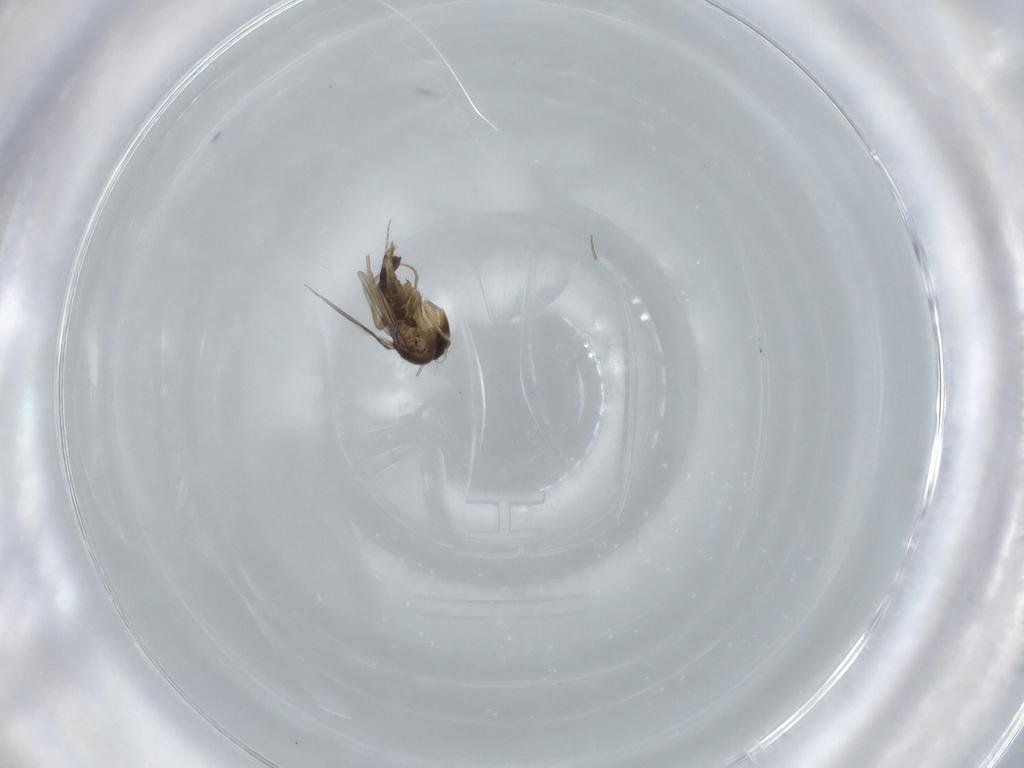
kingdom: Animalia
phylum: Arthropoda
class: Insecta
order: Diptera
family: Phoridae
